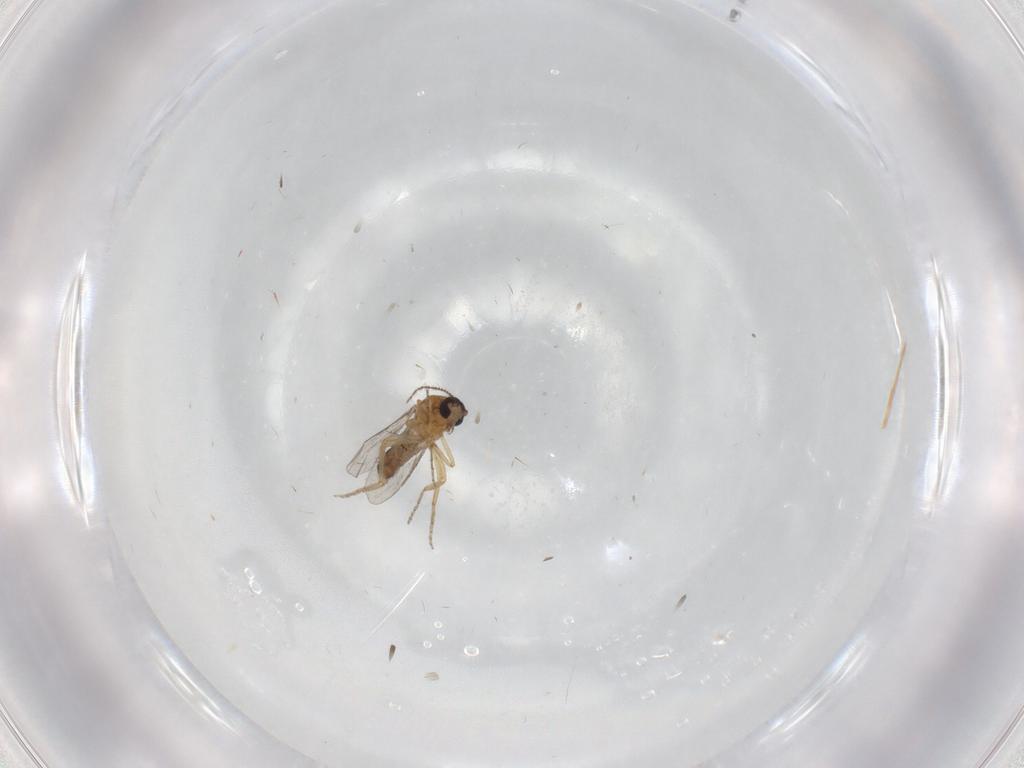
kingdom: Animalia
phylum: Arthropoda
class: Insecta
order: Diptera
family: Ceratopogonidae
